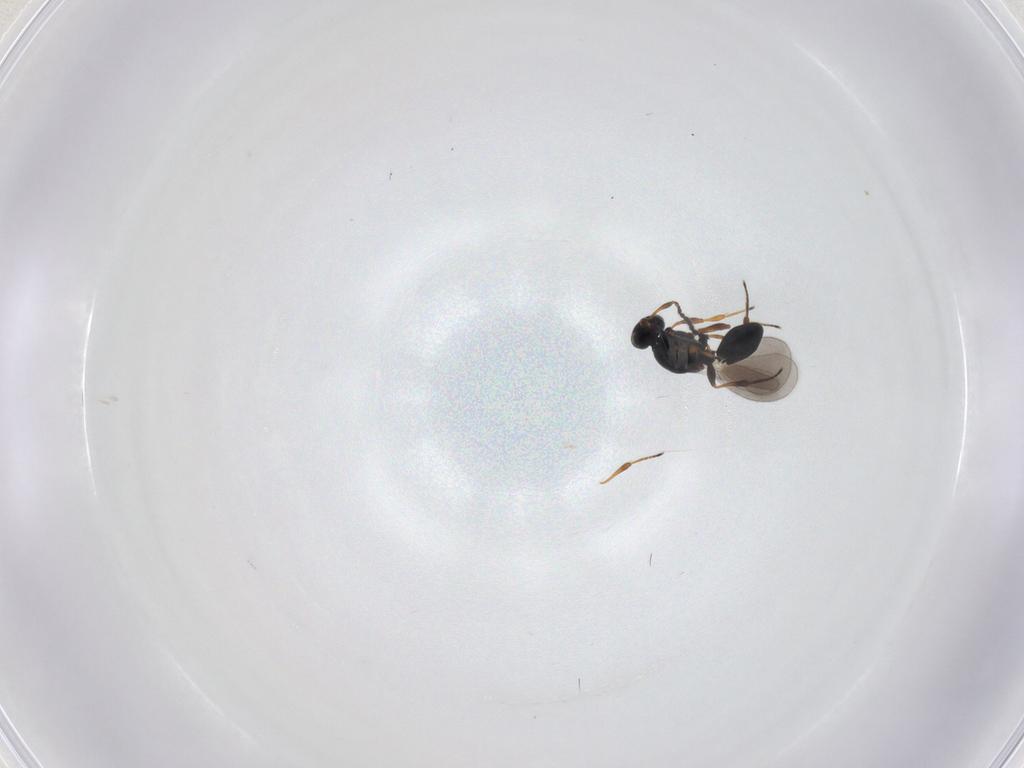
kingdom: Animalia
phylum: Arthropoda
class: Insecta
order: Hymenoptera
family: Platygastridae
